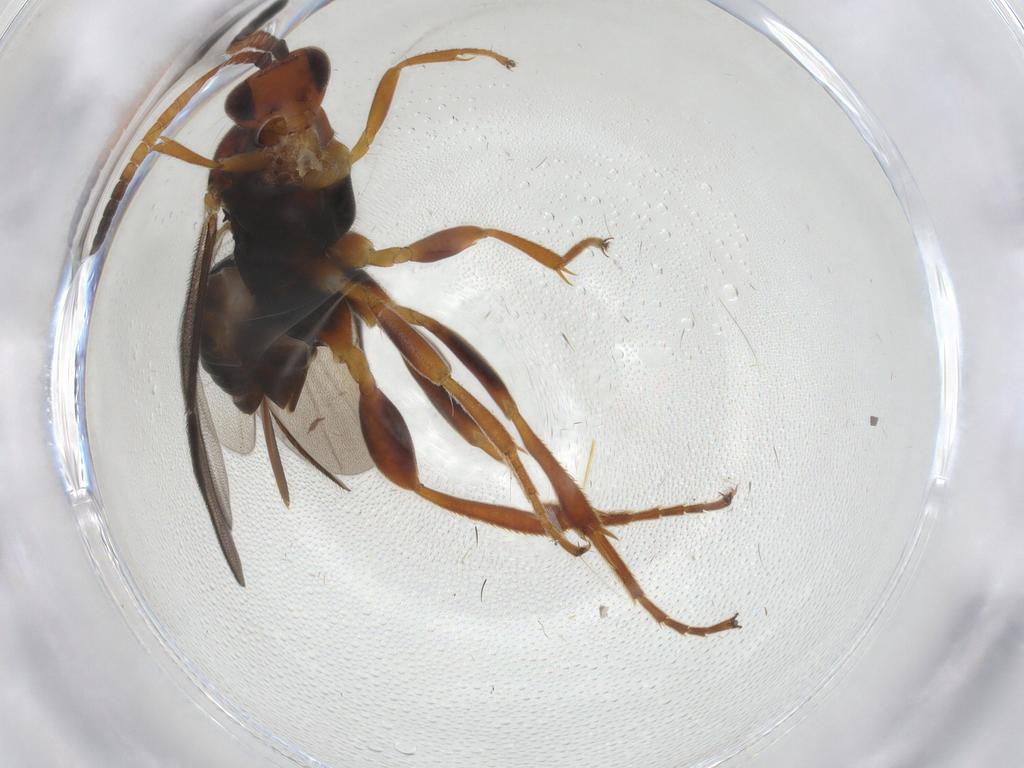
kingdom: Animalia
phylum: Arthropoda
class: Insecta
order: Hymenoptera
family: Braconidae
